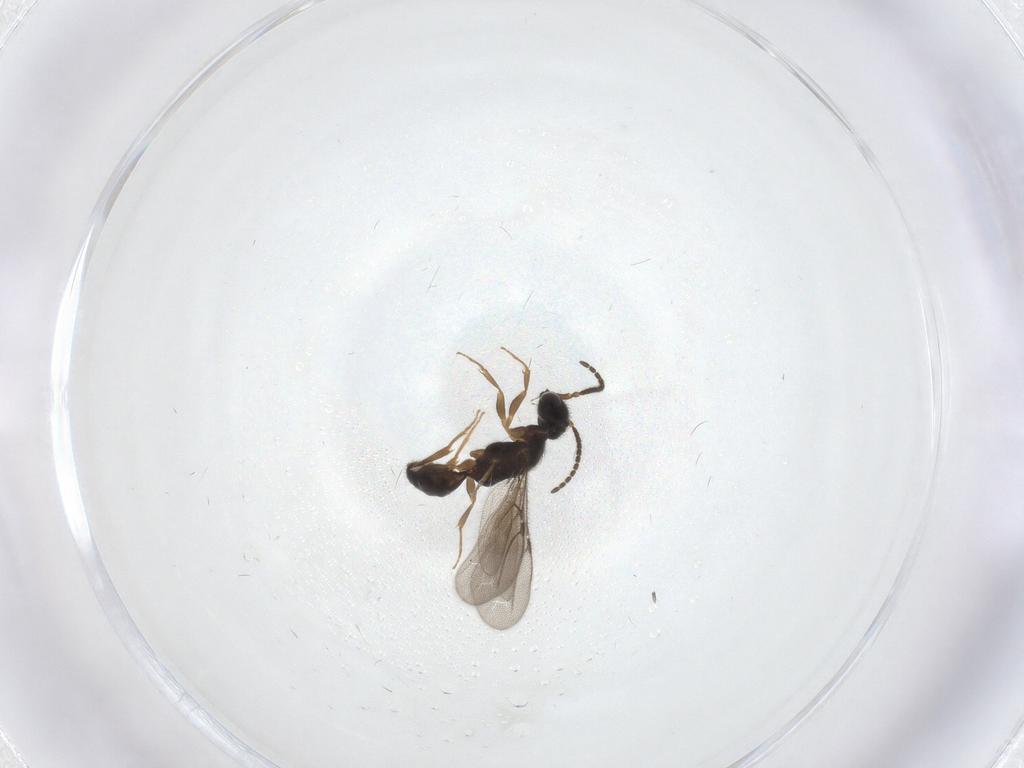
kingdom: Animalia
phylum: Arthropoda
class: Insecta
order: Hymenoptera
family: Bethylidae
